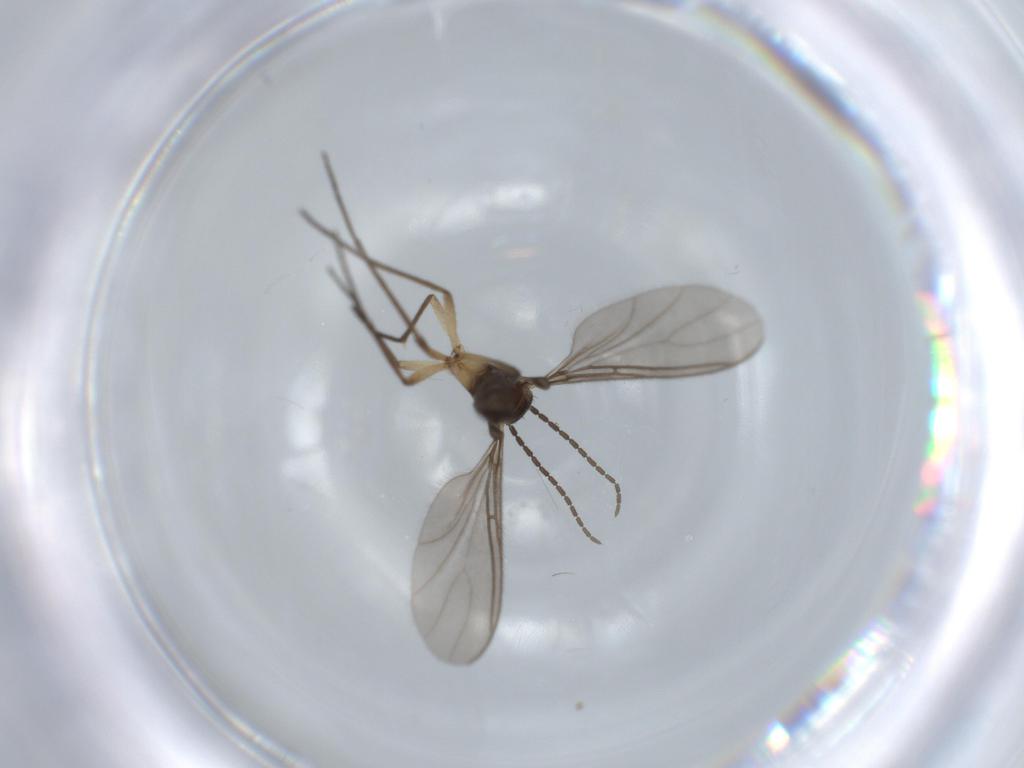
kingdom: Animalia
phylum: Arthropoda
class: Insecta
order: Diptera
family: Sciaridae
